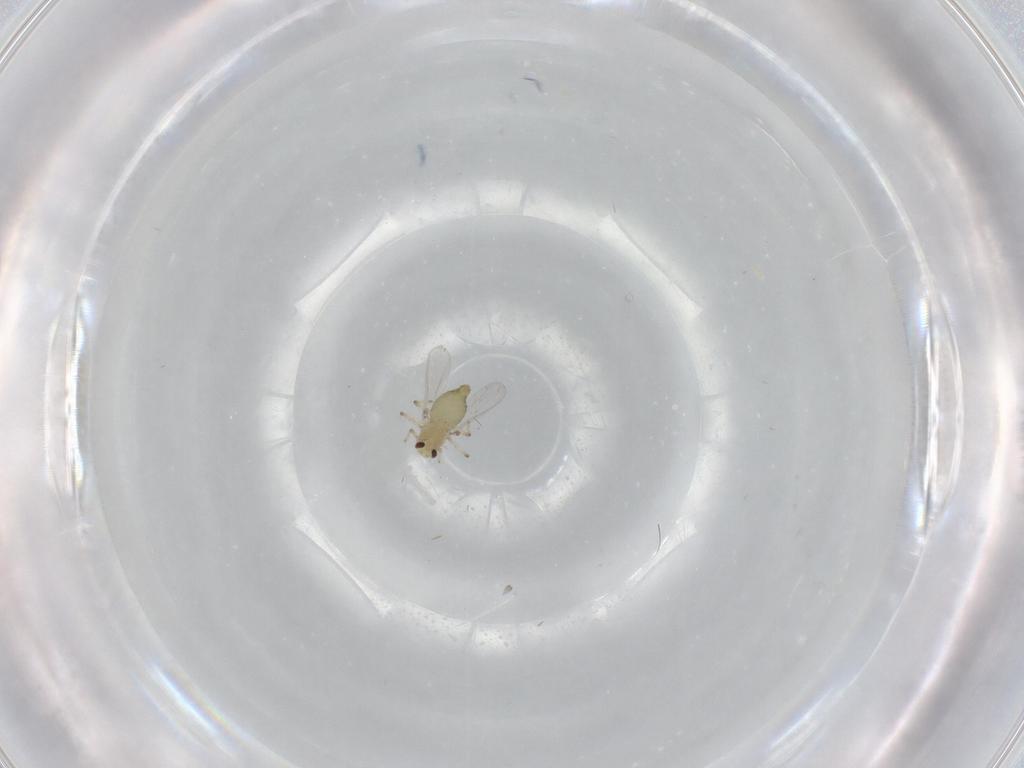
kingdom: Animalia
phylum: Arthropoda
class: Insecta
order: Diptera
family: Chironomidae
